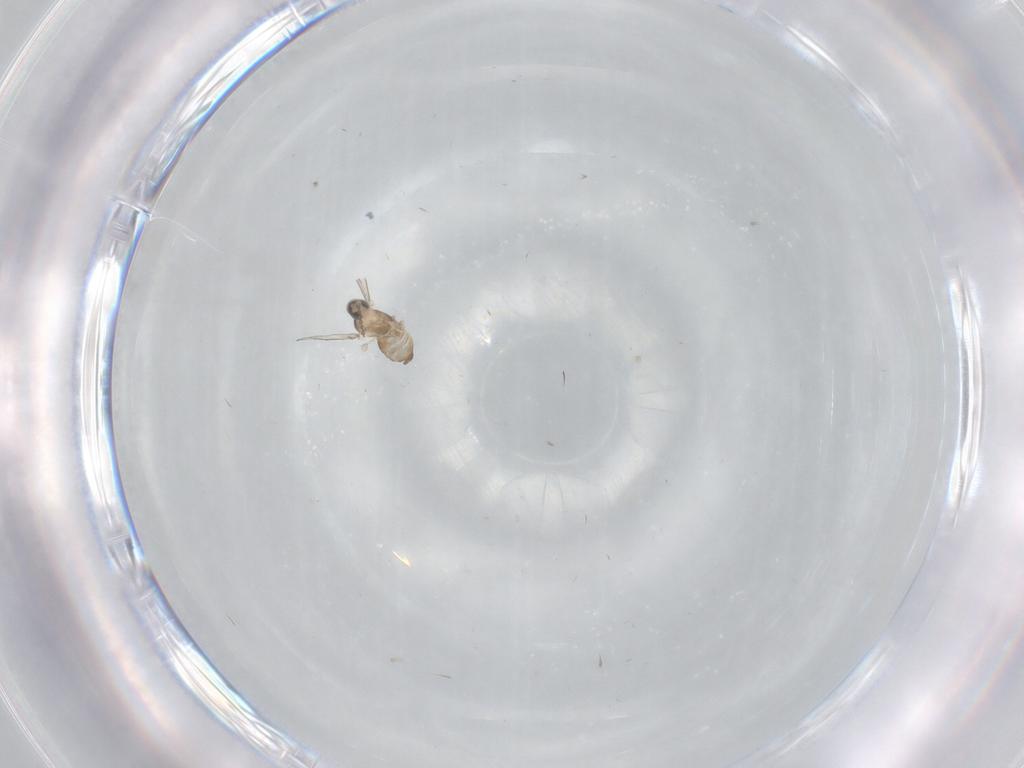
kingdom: Animalia
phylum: Arthropoda
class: Insecta
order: Diptera
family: Cecidomyiidae
